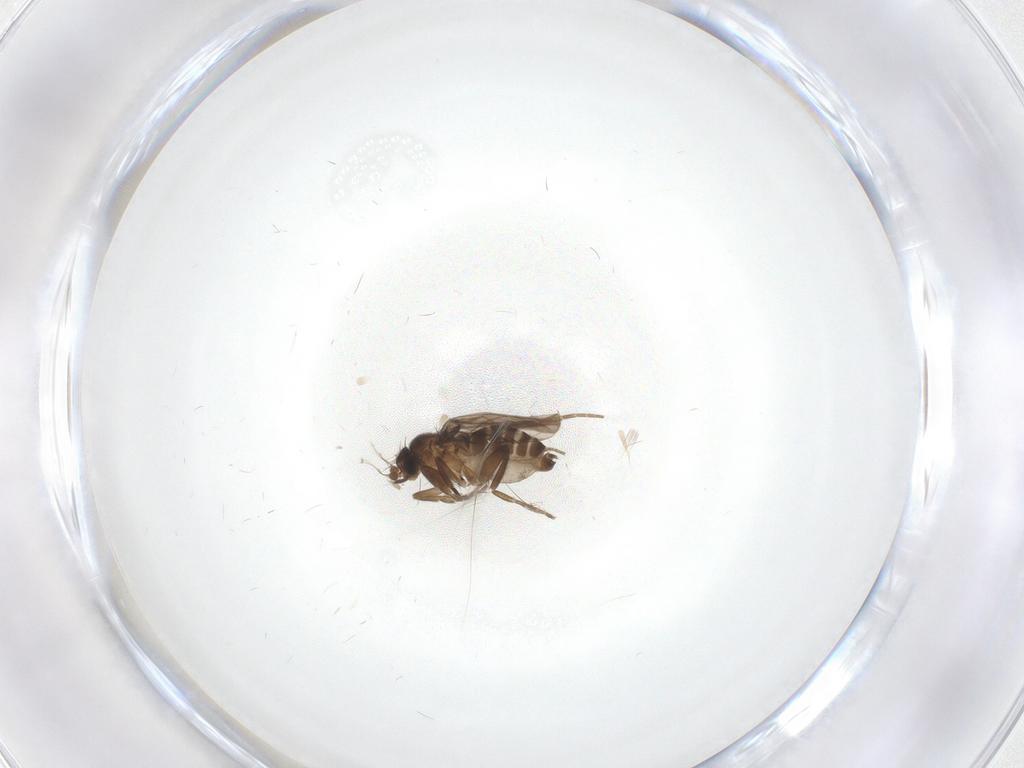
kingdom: Animalia
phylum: Arthropoda
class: Insecta
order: Diptera
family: Phoridae
